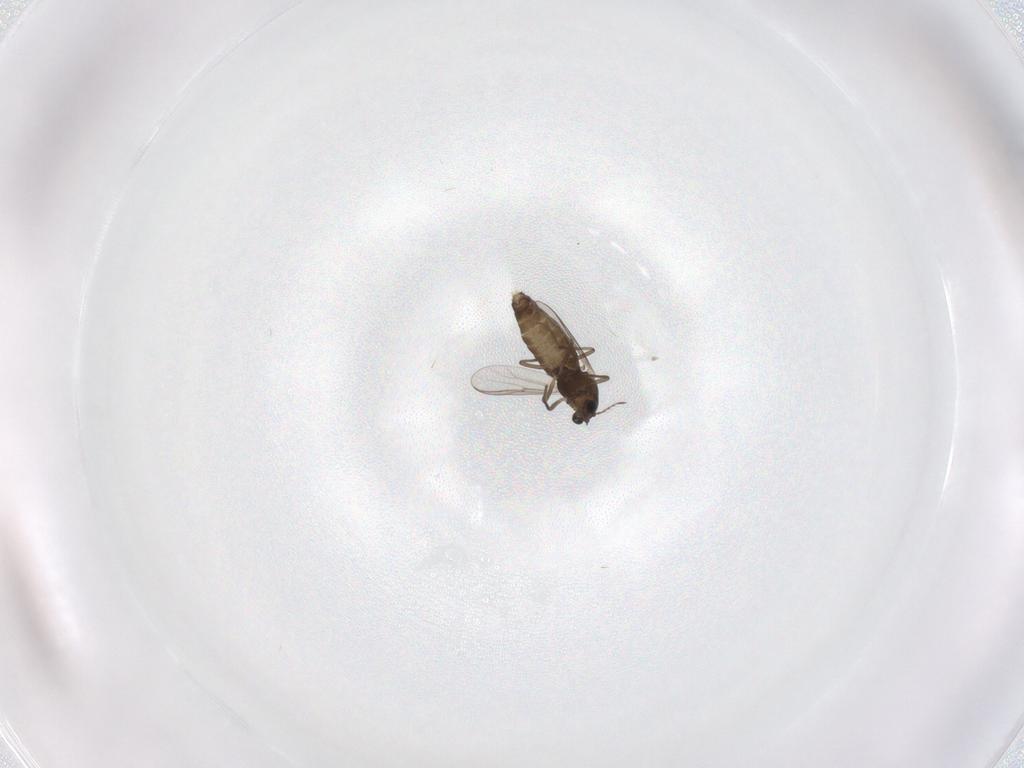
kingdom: Animalia
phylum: Arthropoda
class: Insecta
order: Diptera
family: Chironomidae
